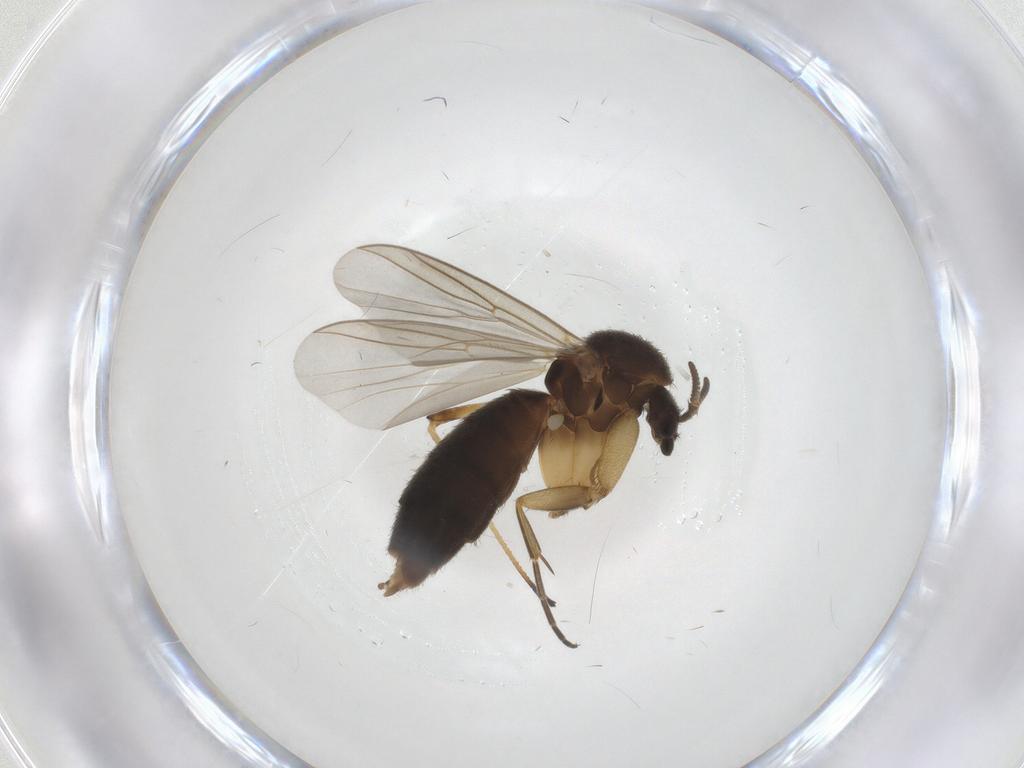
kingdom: Animalia
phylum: Arthropoda
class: Insecta
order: Diptera
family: Mycetophilidae
